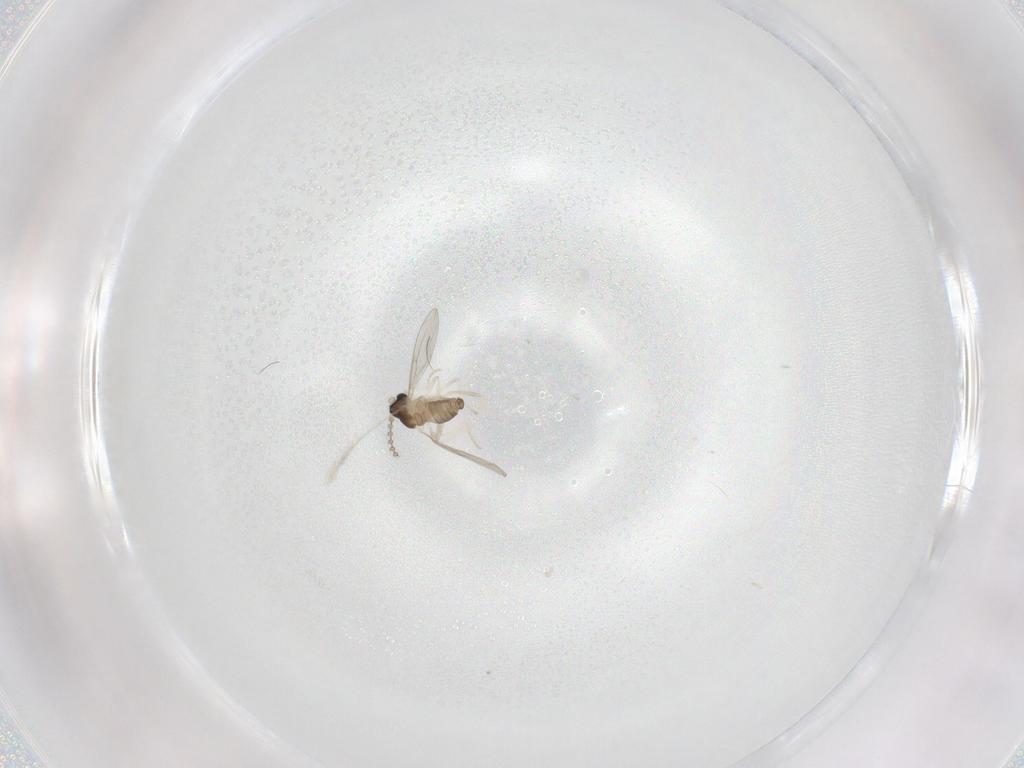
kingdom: Animalia
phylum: Arthropoda
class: Insecta
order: Diptera
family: Cecidomyiidae
